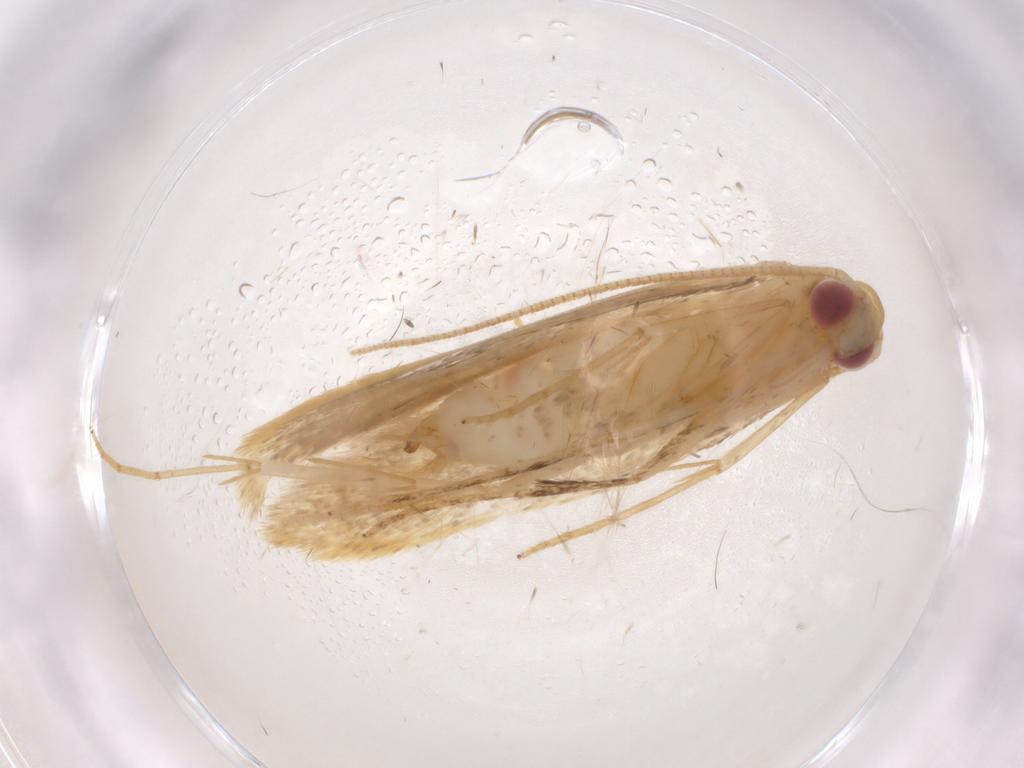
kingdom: Animalia
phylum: Arthropoda
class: Insecta
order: Lepidoptera
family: Gelechiidae
